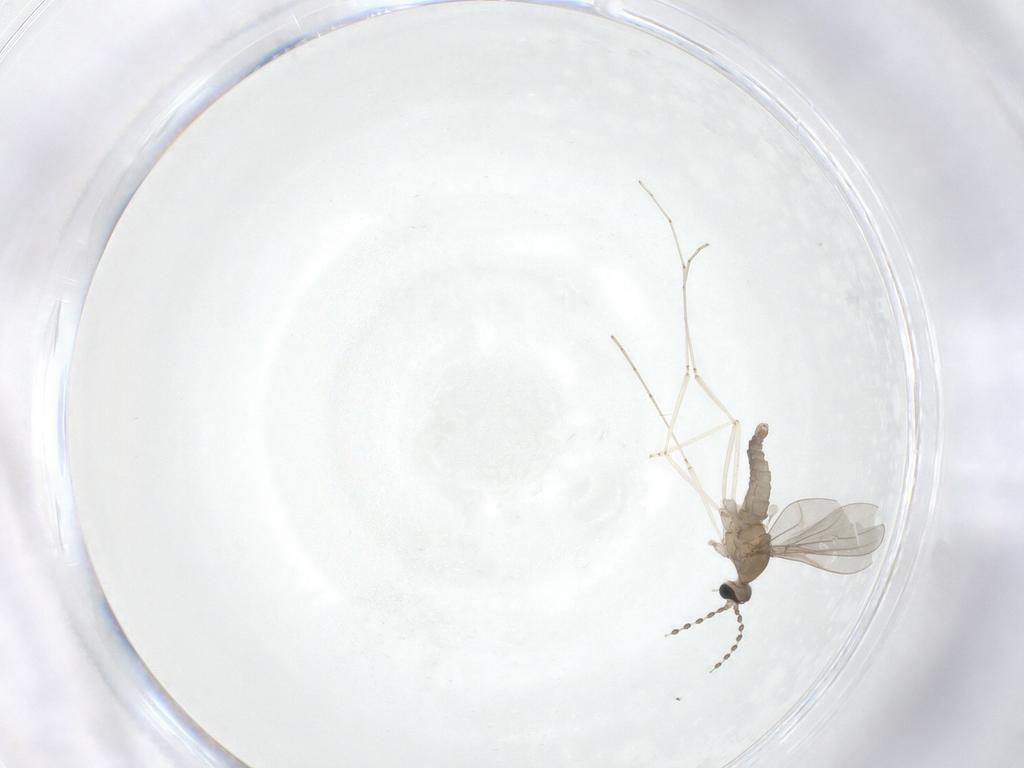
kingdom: Animalia
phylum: Arthropoda
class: Insecta
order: Diptera
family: Cecidomyiidae
